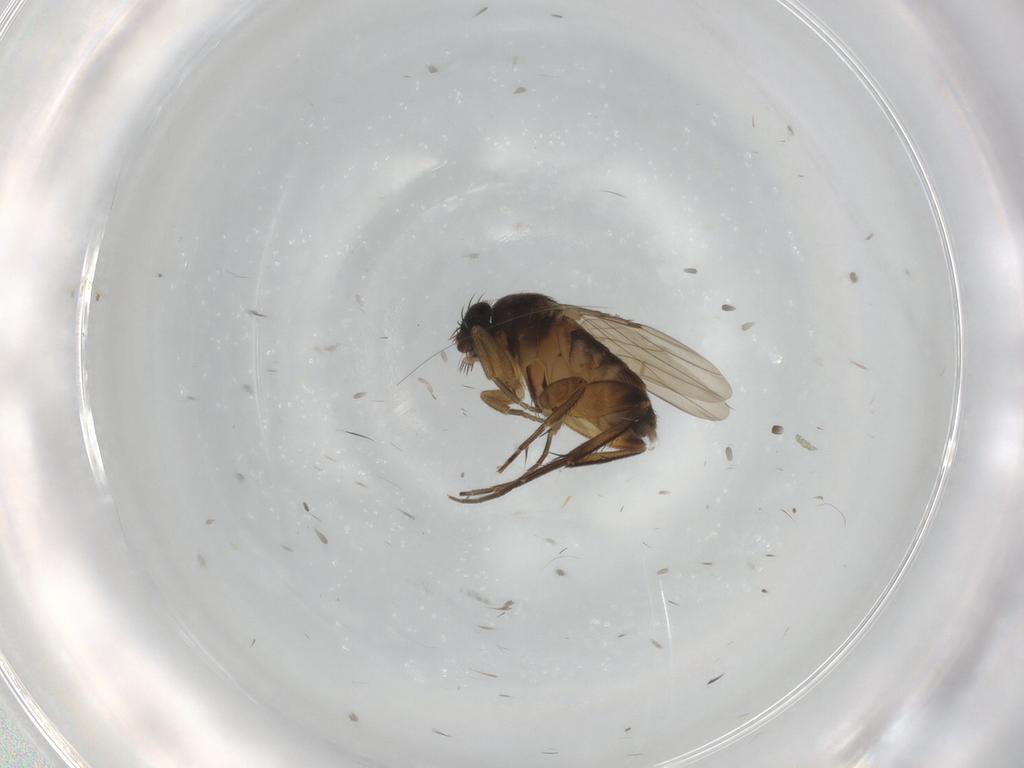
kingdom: Animalia
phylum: Arthropoda
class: Insecta
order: Diptera
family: Phoridae
